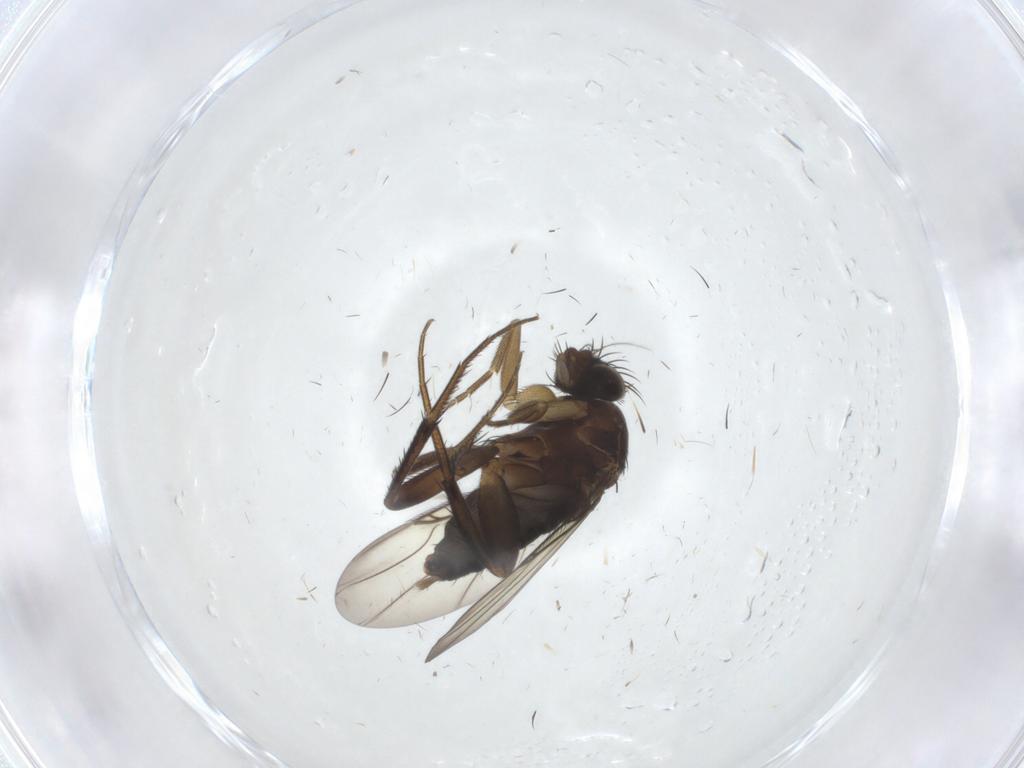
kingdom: Animalia
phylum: Arthropoda
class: Insecta
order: Diptera
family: Phoridae
